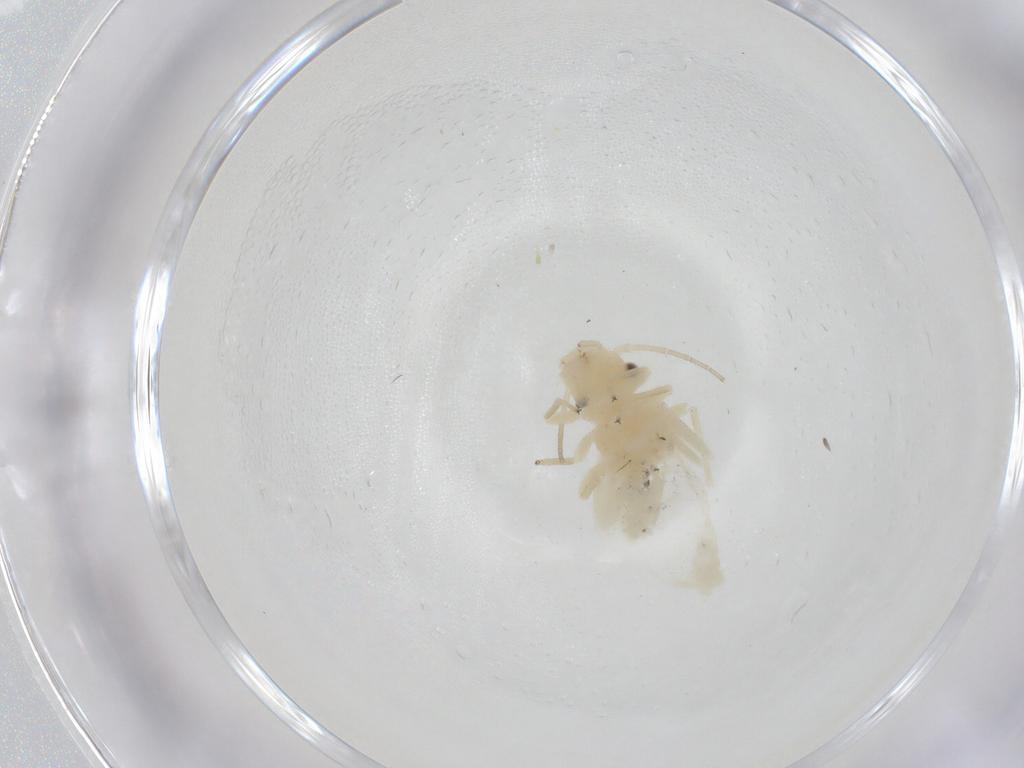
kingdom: Animalia
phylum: Arthropoda
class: Insecta
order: Psocodea
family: Caeciliusidae
